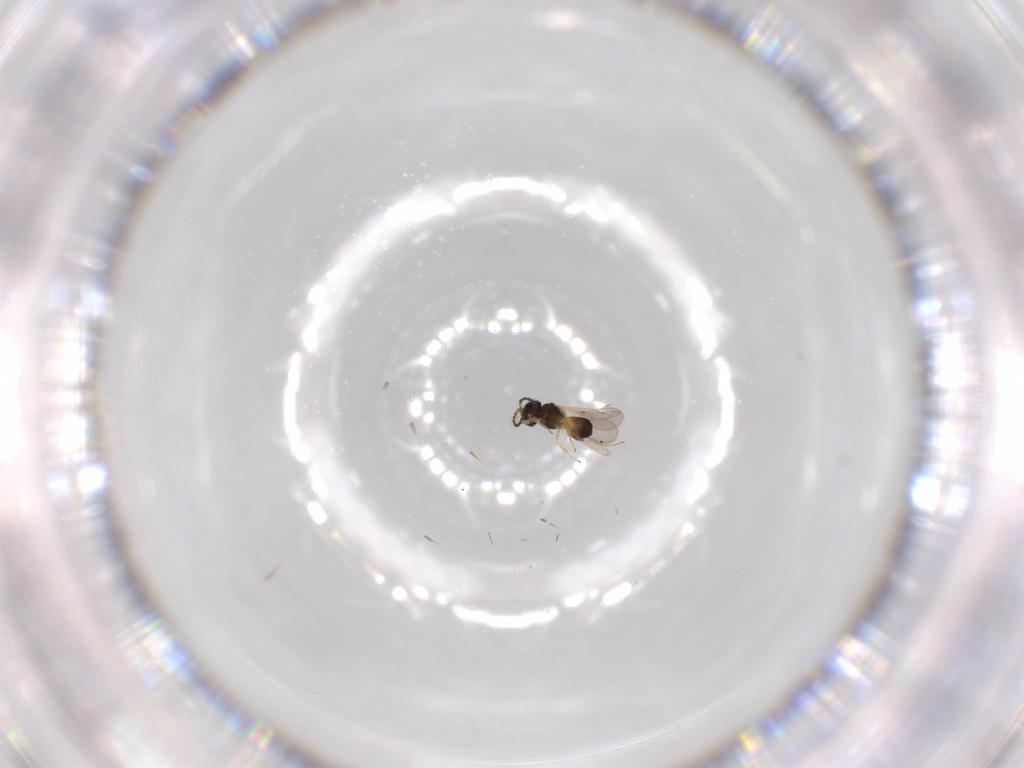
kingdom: Animalia
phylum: Arthropoda
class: Insecta
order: Hymenoptera
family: Scelionidae
